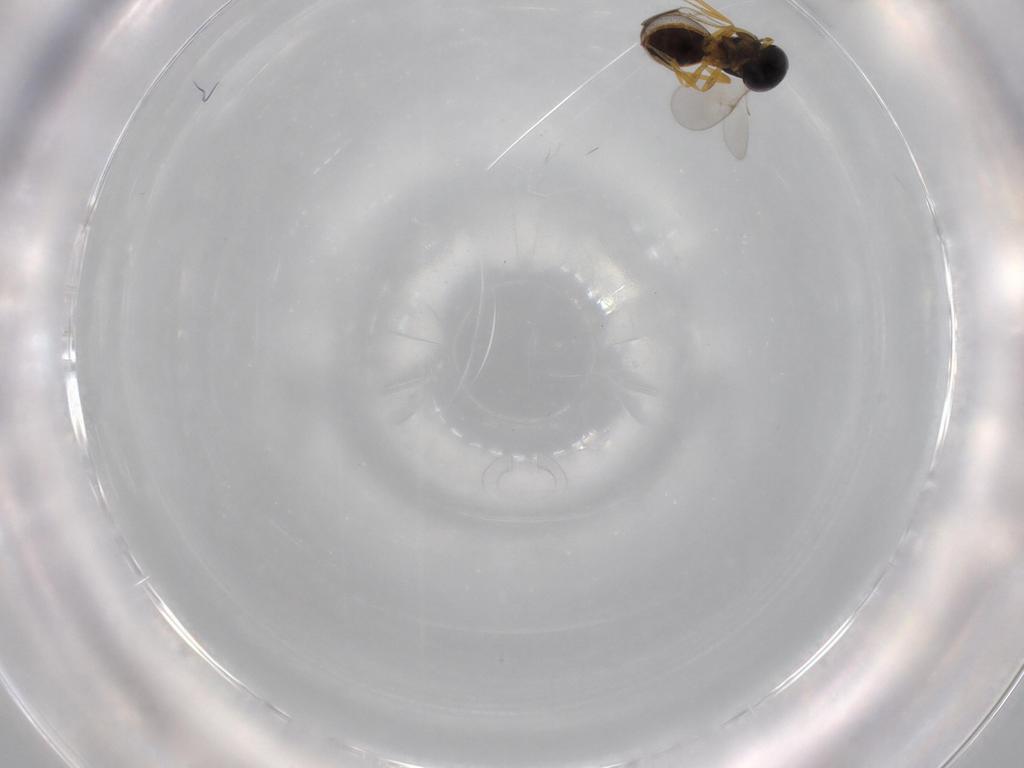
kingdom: Animalia
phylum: Arthropoda
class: Insecta
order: Hymenoptera
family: Scelionidae
